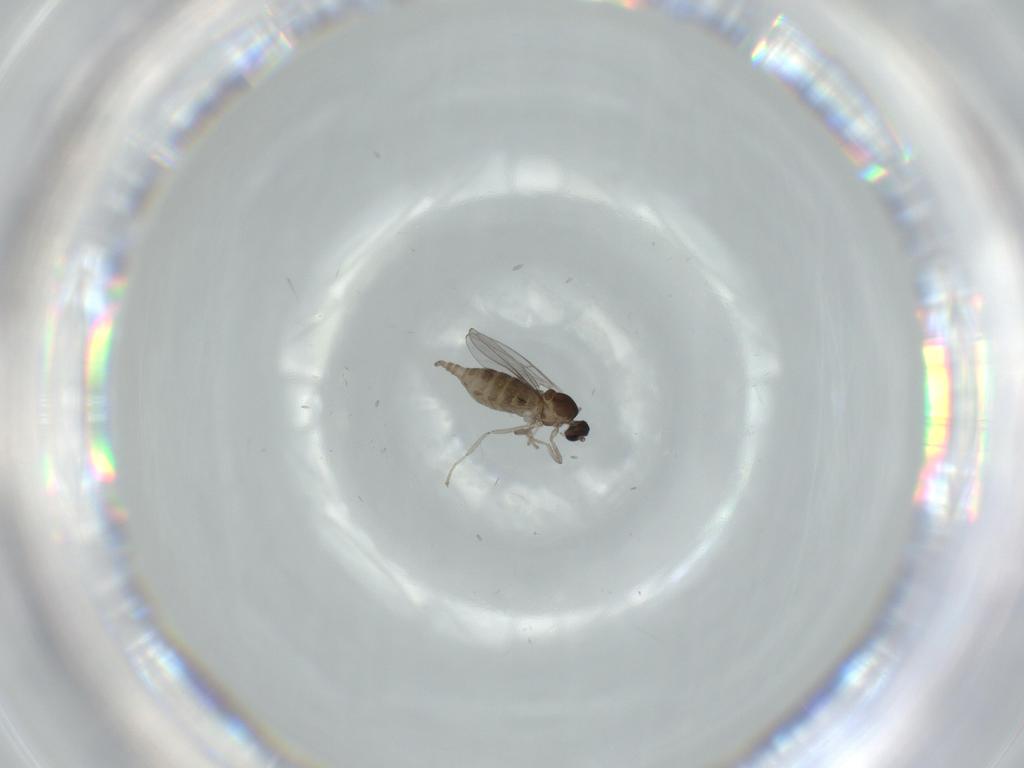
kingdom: Animalia
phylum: Arthropoda
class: Insecta
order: Diptera
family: Cecidomyiidae
